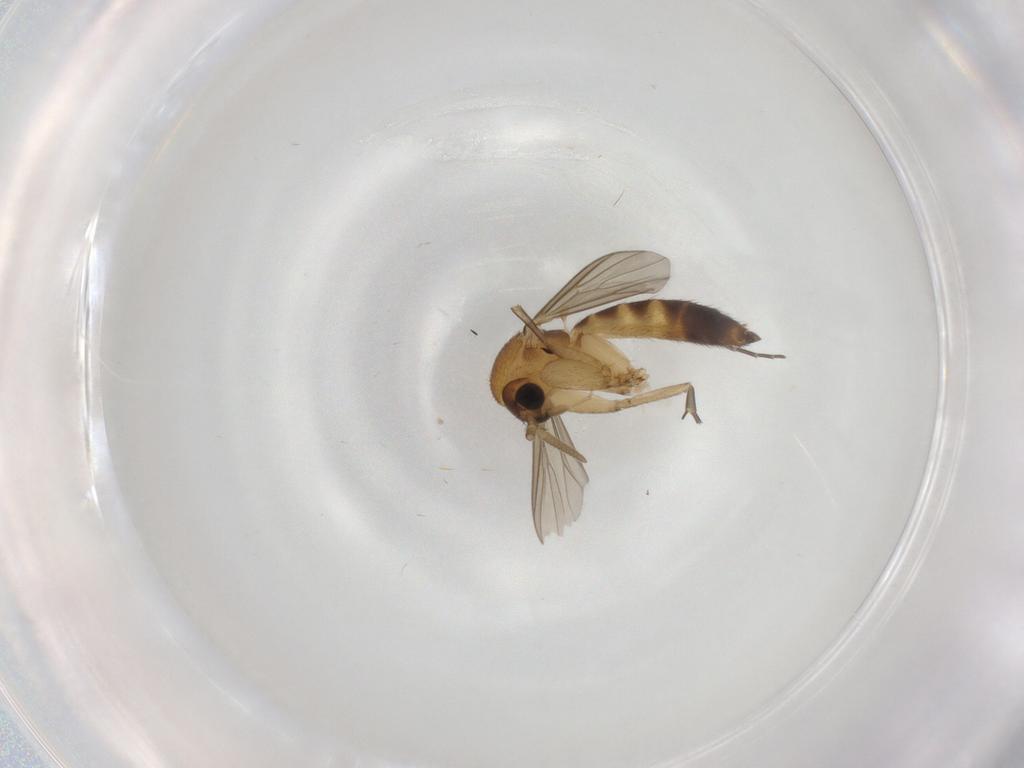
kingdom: Animalia
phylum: Arthropoda
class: Insecta
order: Diptera
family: Mycetophilidae
